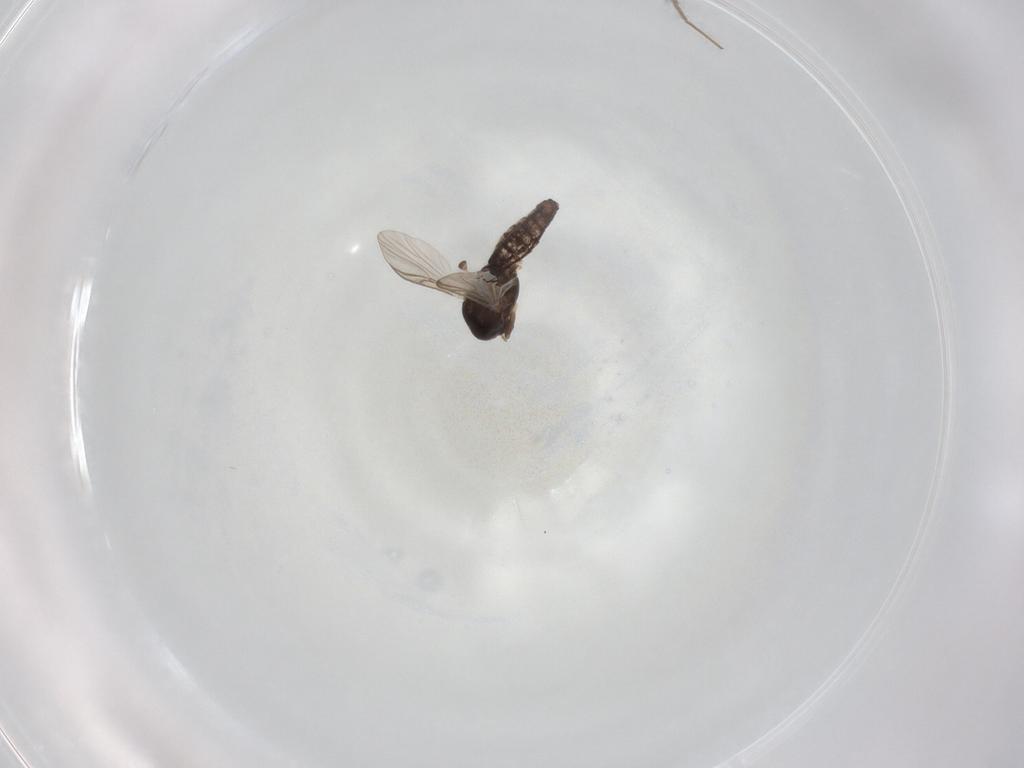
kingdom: Animalia
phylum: Arthropoda
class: Insecta
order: Diptera
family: Chironomidae
